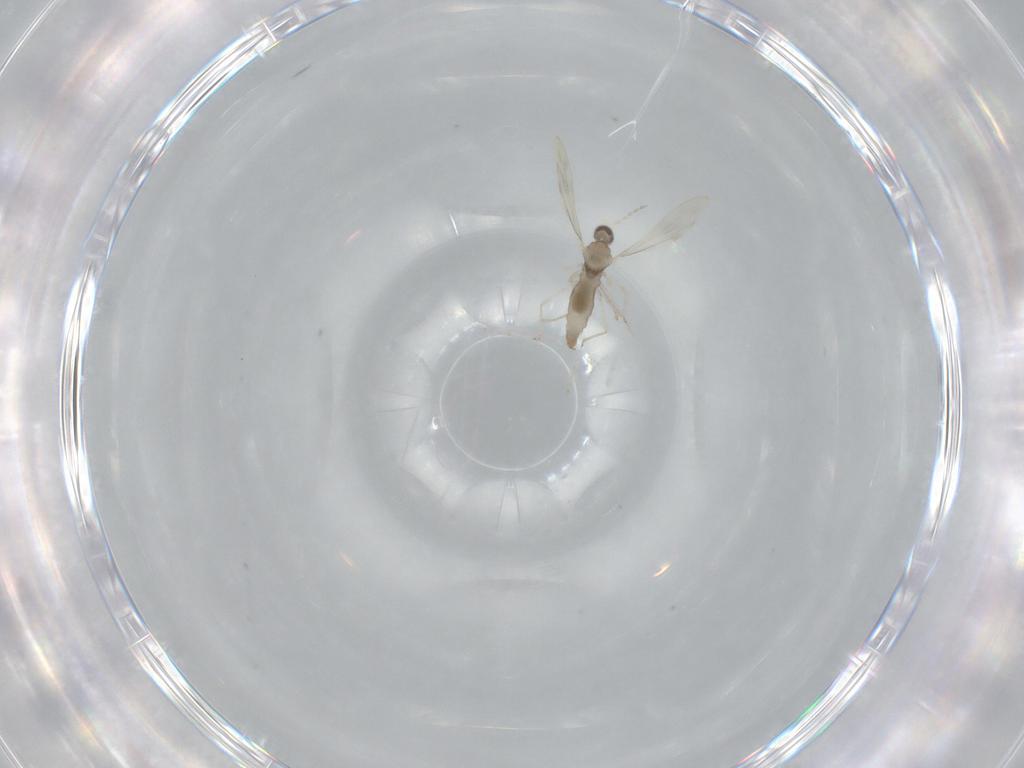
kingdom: Animalia
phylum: Arthropoda
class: Insecta
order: Diptera
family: Cecidomyiidae
